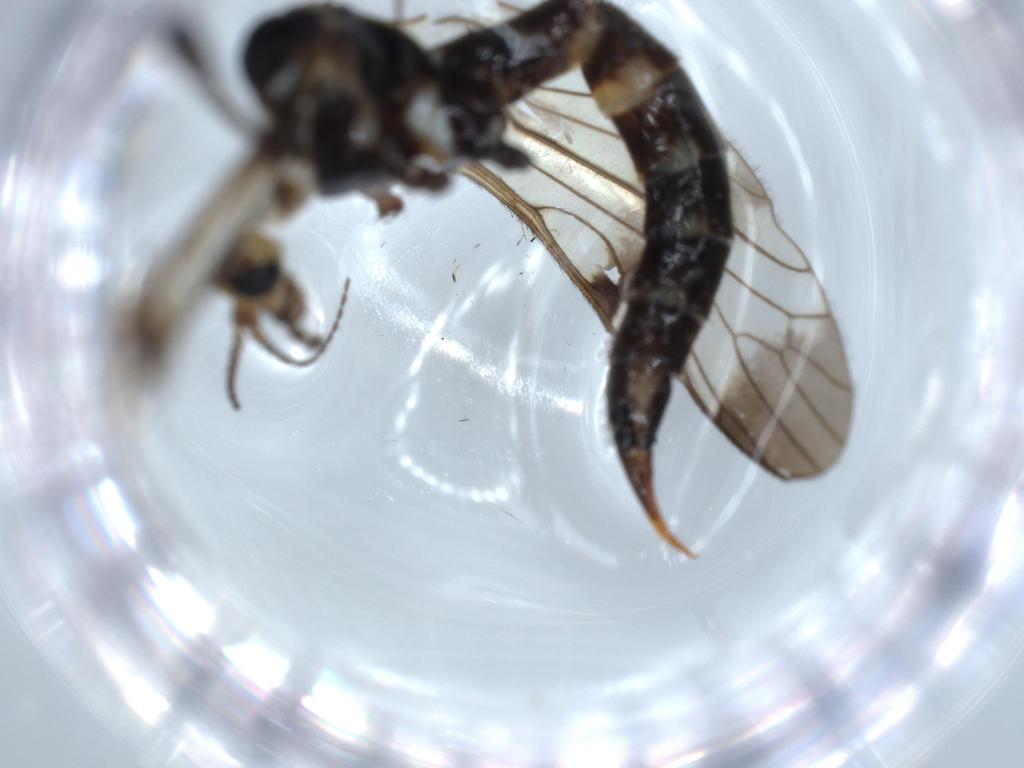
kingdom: Animalia
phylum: Arthropoda
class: Insecta
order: Diptera
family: Limoniidae
